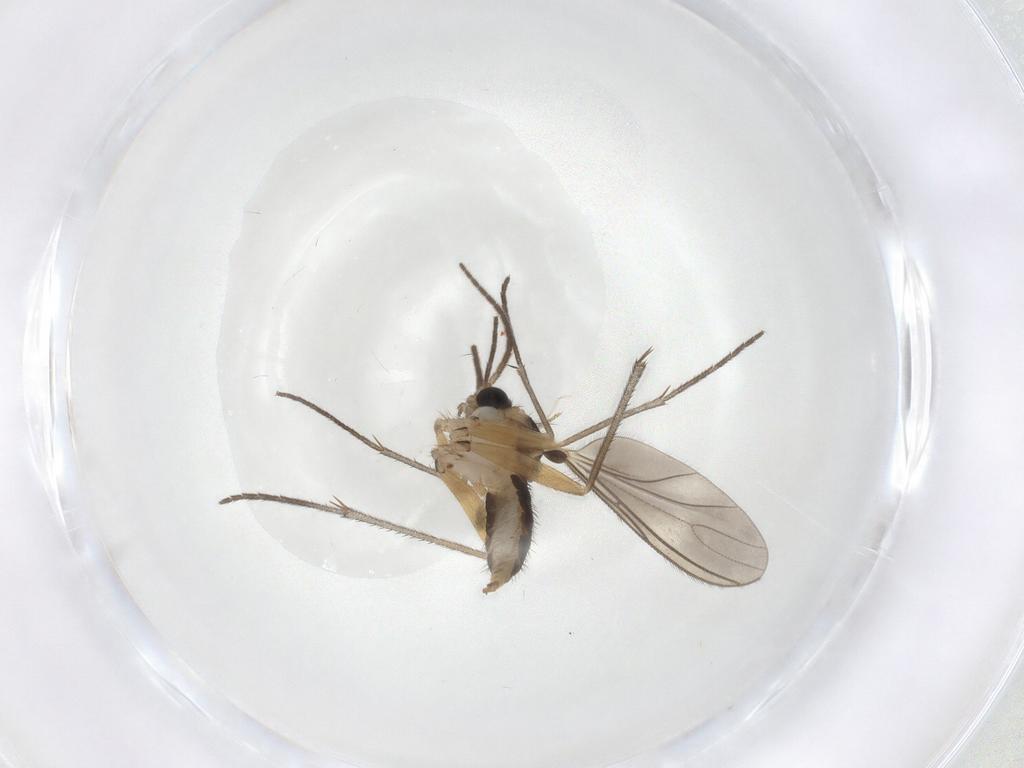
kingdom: Animalia
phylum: Arthropoda
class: Insecta
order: Diptera
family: Sciaridae
